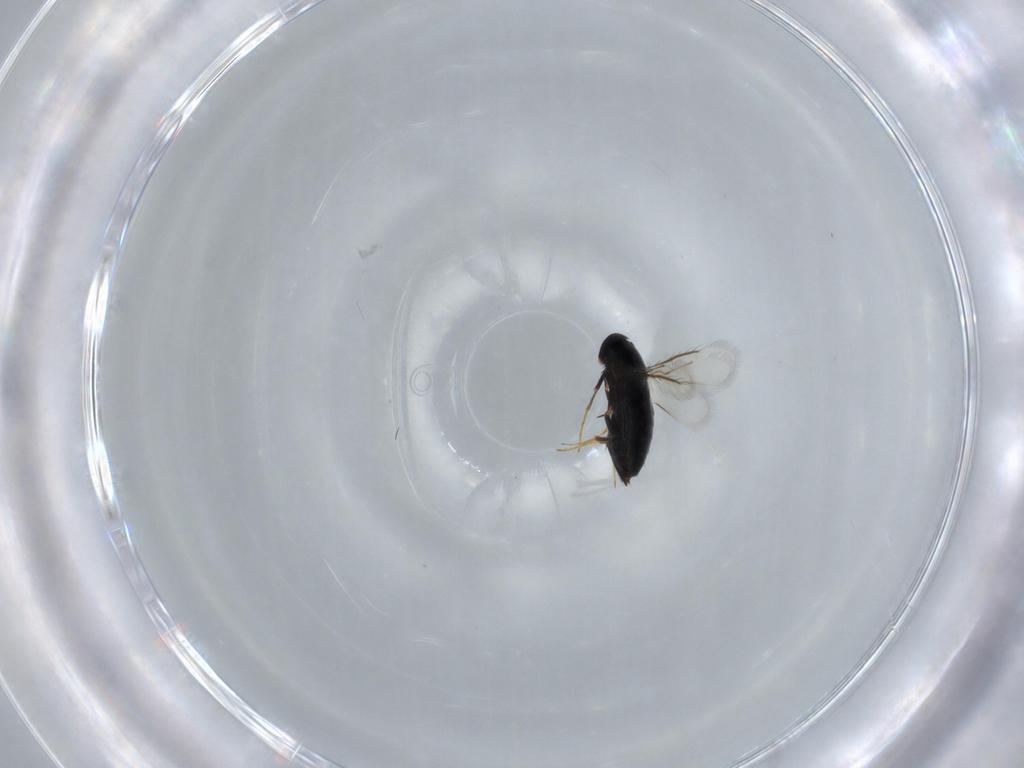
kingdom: Animalia
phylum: Arthropoda
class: Insecta
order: Hymenoptera
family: Signiphoridae
